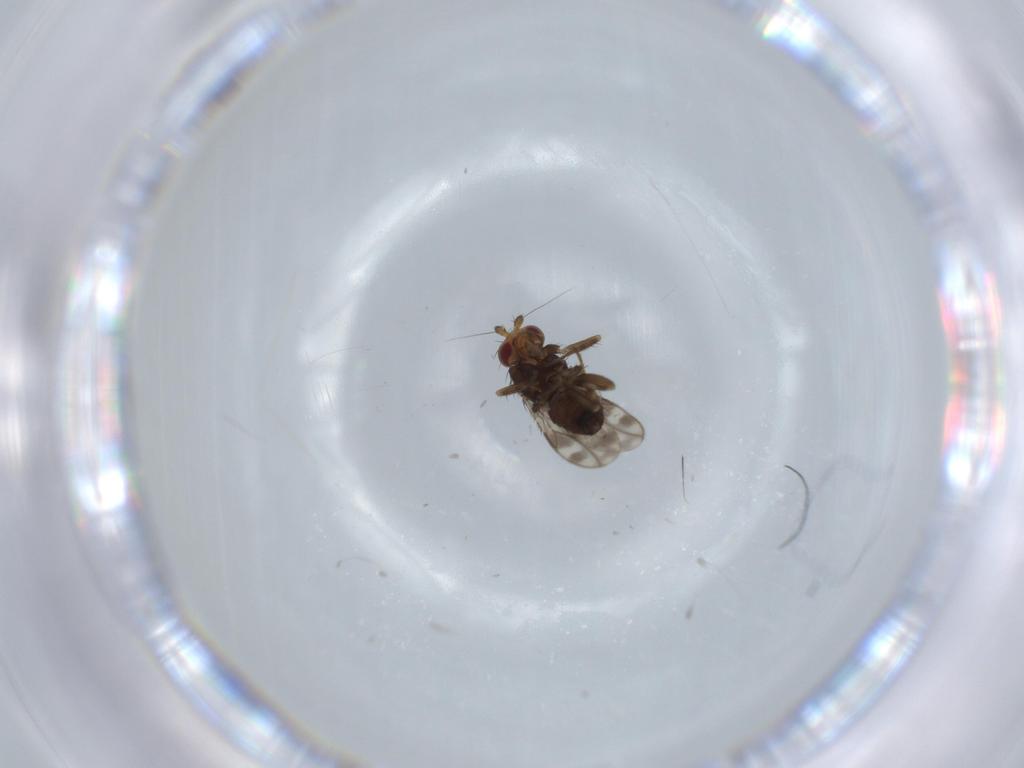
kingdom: Animalia
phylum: Arthropoda
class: Insecta
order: Diptera
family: Sphaeroceridae
